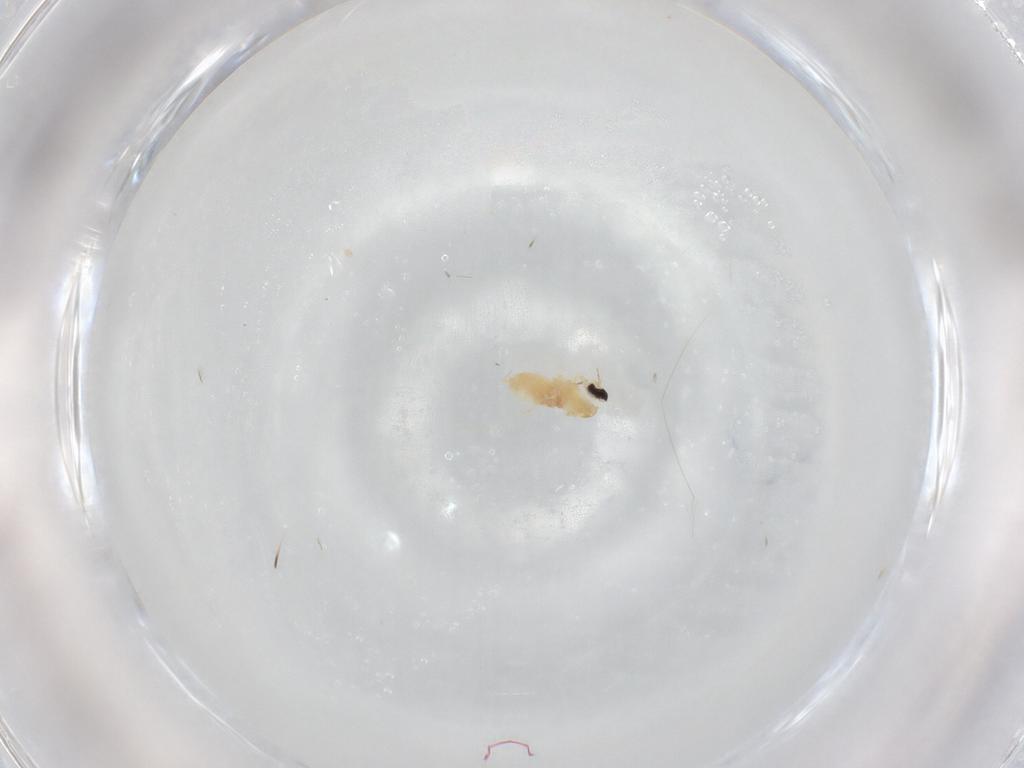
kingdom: Animalia
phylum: Arthropoda
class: Insecta
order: Diptera
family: Cecidomyiidae
